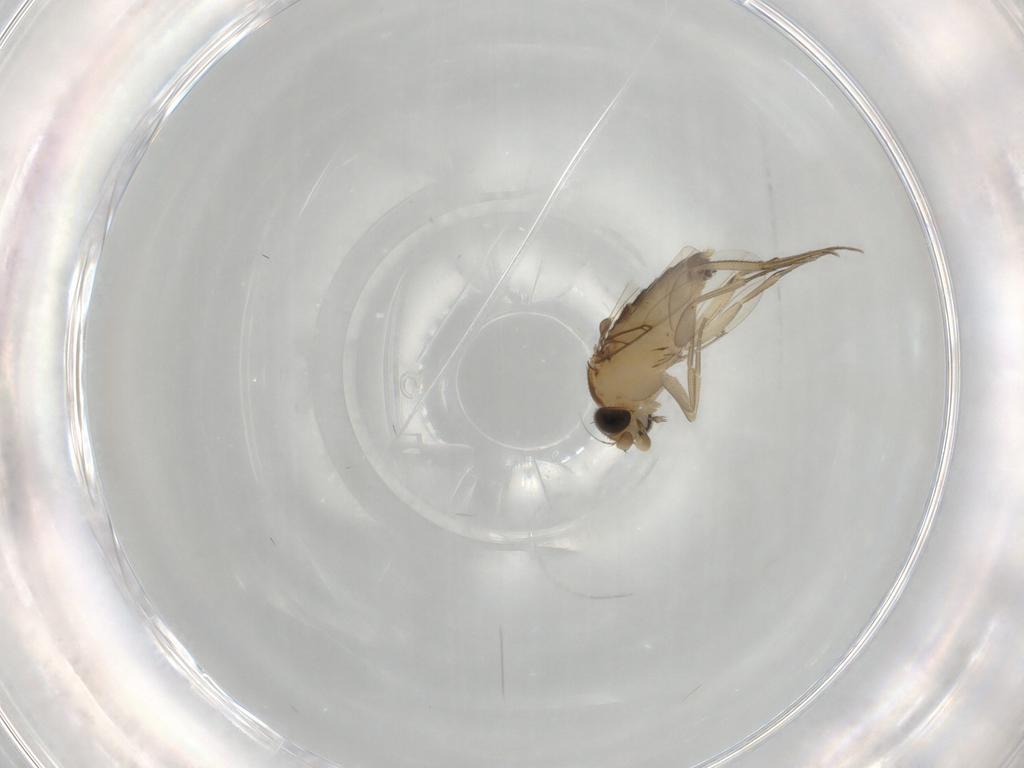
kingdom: Animalia
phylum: Arthropoda
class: Insecta
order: Diptera
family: Phoridae
